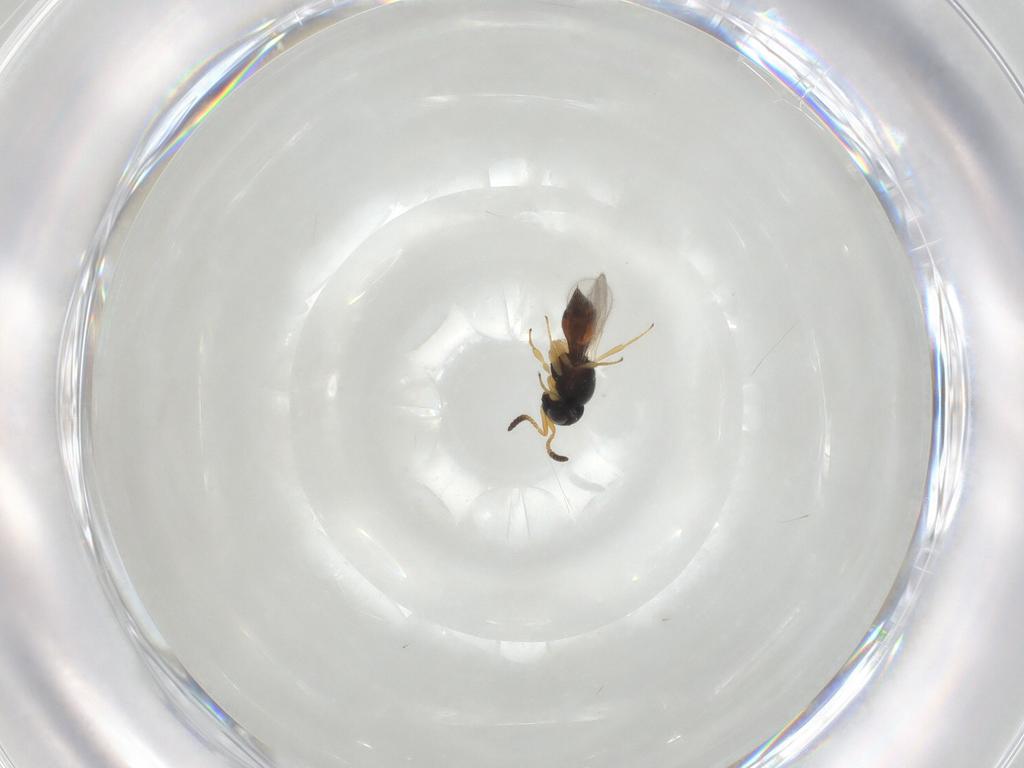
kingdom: Animalia
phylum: Arthropoda
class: Insecta
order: Hymenoptera
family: Scelionidae
